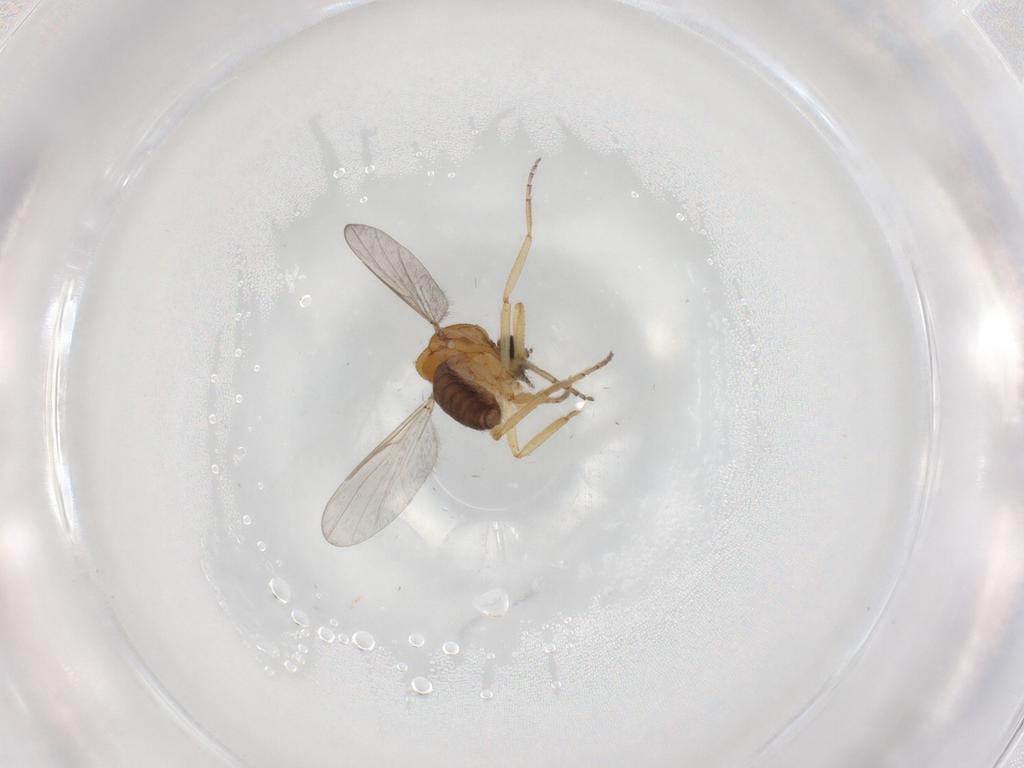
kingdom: Animalia
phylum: Arthropoda
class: Insecta
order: Diptera
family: Ceratopogonidae
